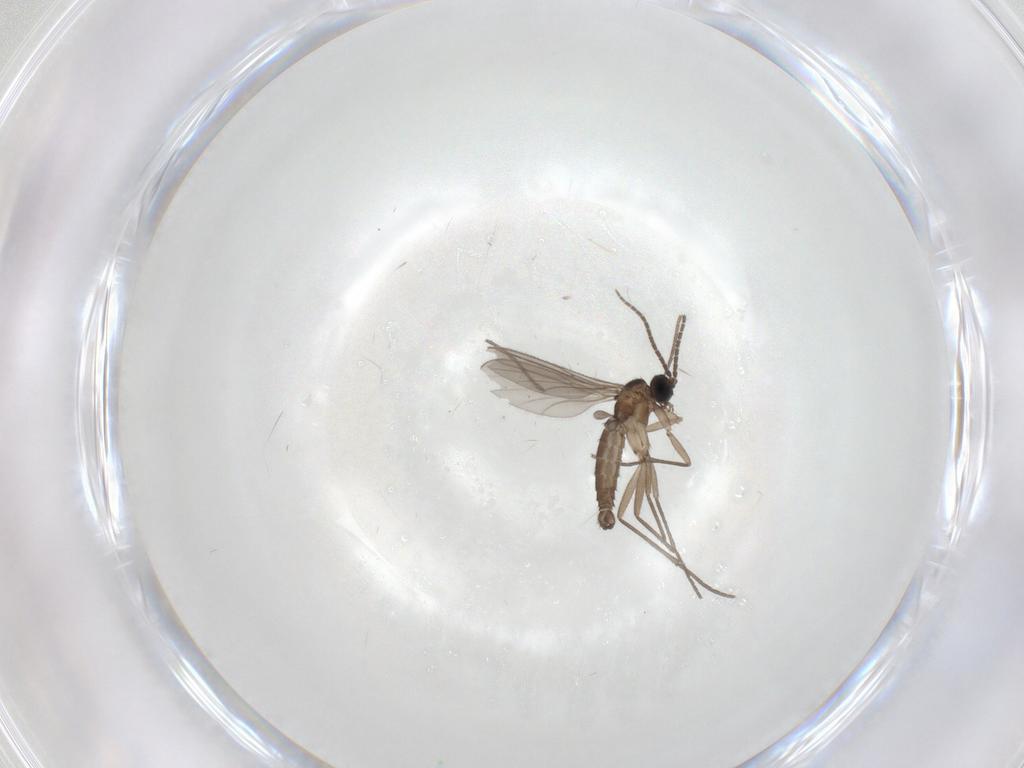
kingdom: Animalia
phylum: Arthropoda
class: Insecta
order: Diptera
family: Sciaridae
